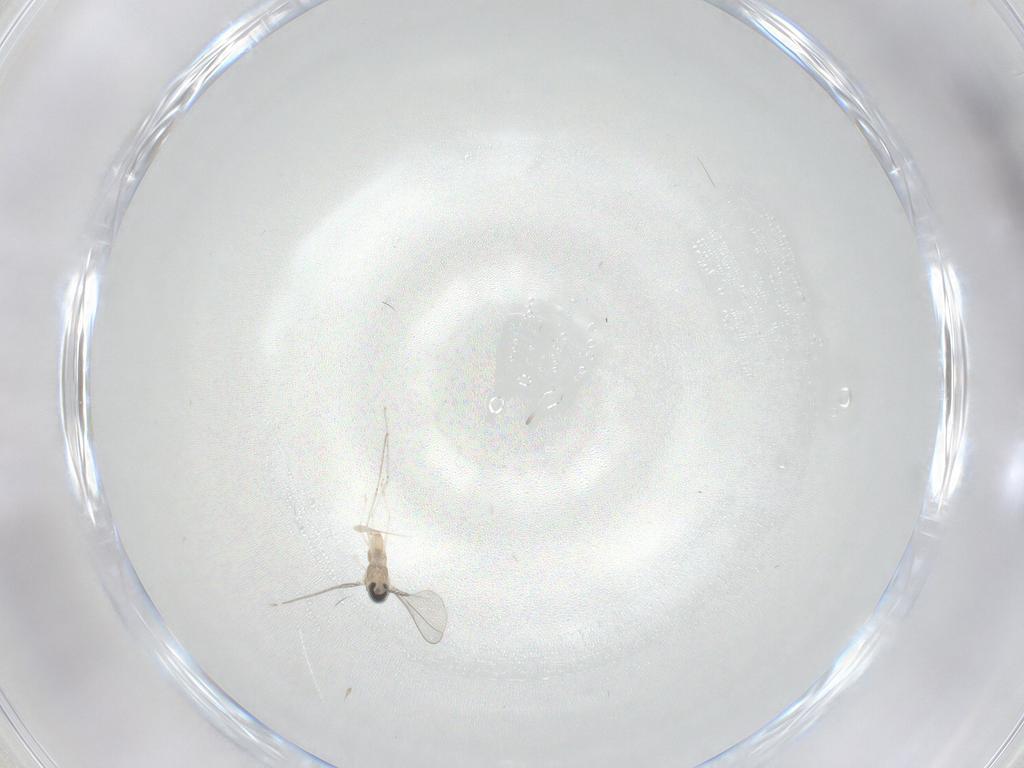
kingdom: Animalia
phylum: Arthropoda
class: Insecta
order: Diptera
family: Cecidomyiidae
